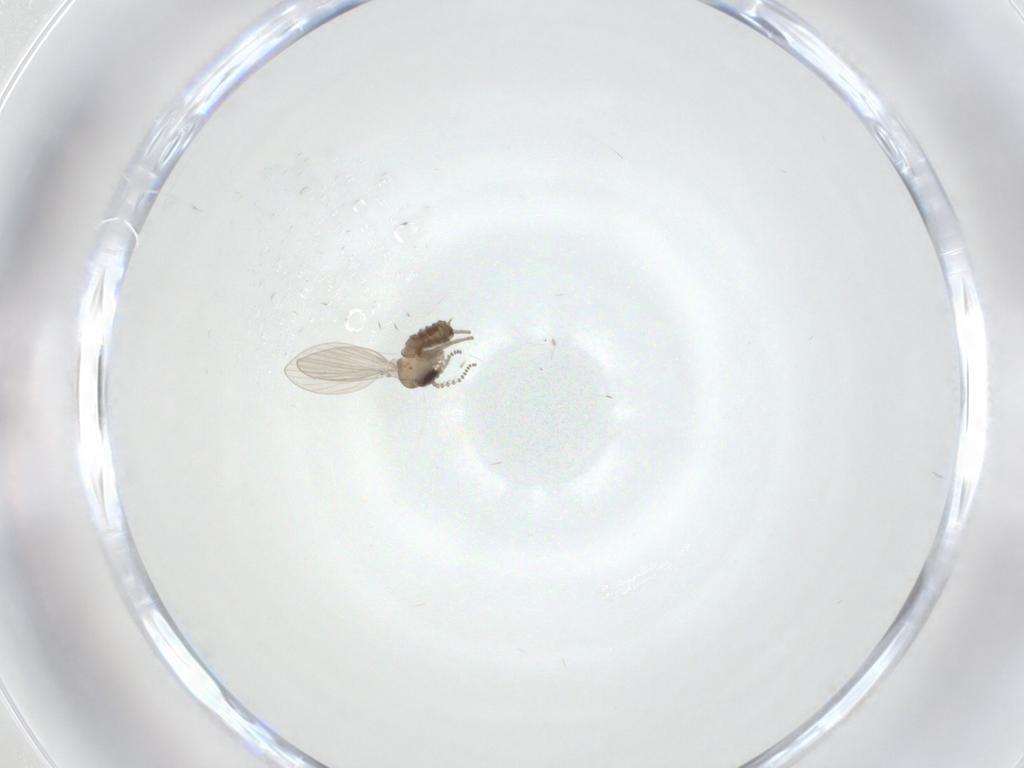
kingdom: Animalia
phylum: Arthropoda
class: Insecta
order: Diptera
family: Psychodidae
